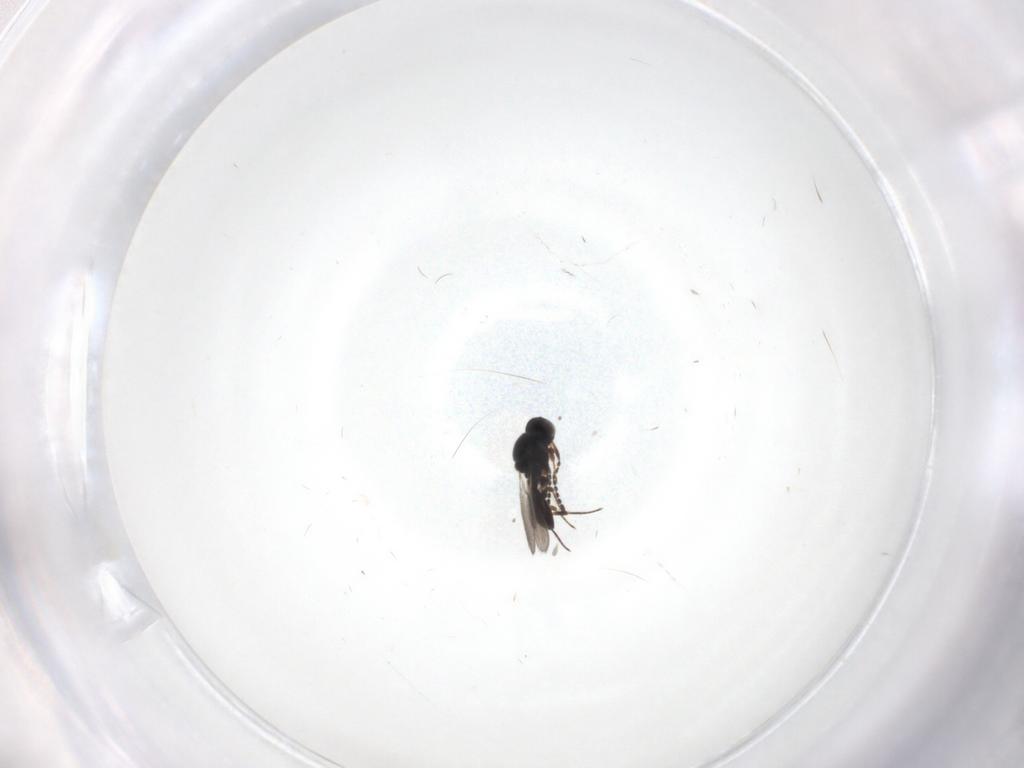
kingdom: Animalia
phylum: Arthropoda
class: Insecta
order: Hymenoptera
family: Platygastridae
